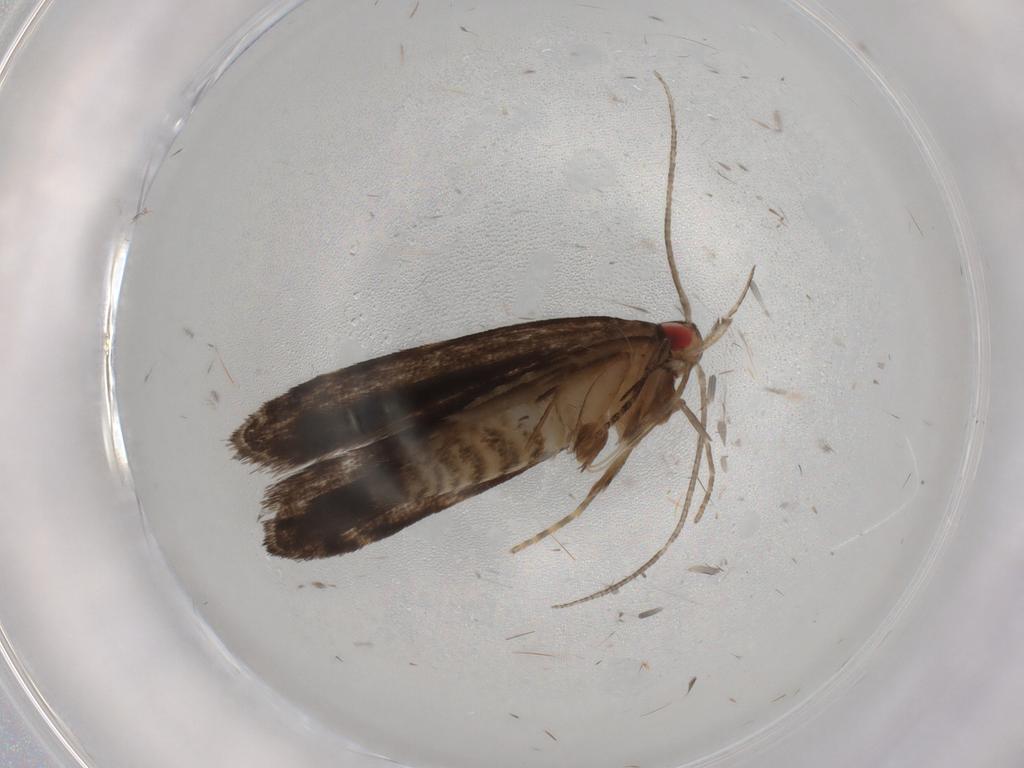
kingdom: Animalia
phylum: Arthropoda
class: Insecta
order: Lepidoptera
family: Gelechiidae
